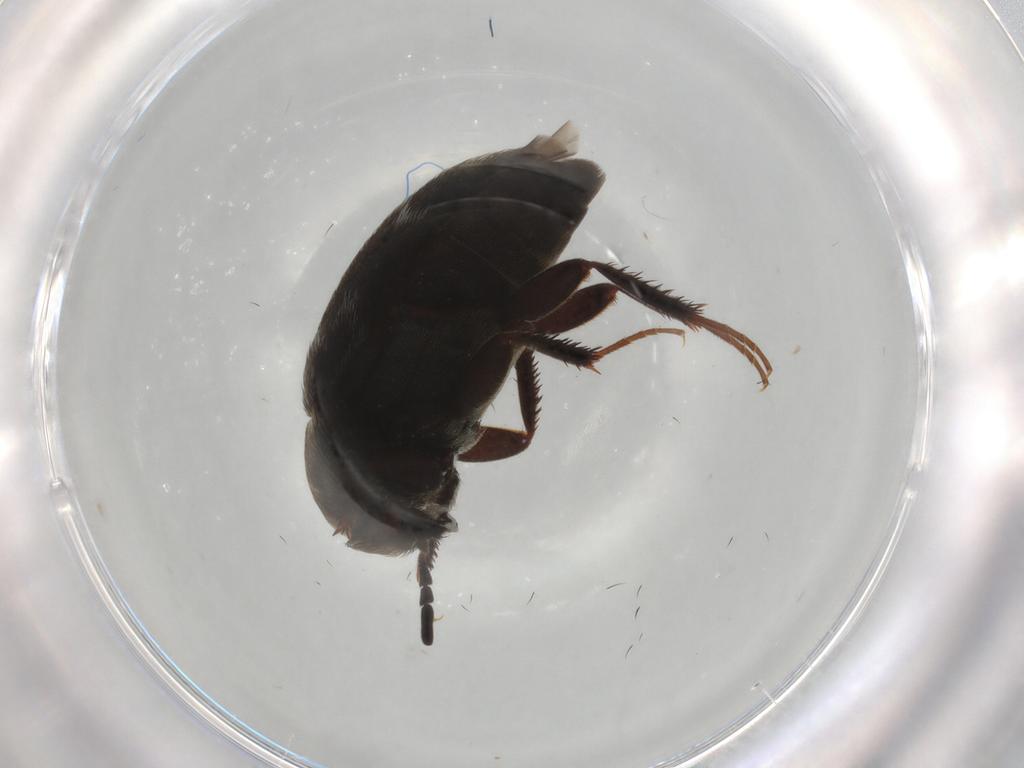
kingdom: Animalia
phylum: Arthropoda
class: Insecta
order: Coleoptera
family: Dermestidae
